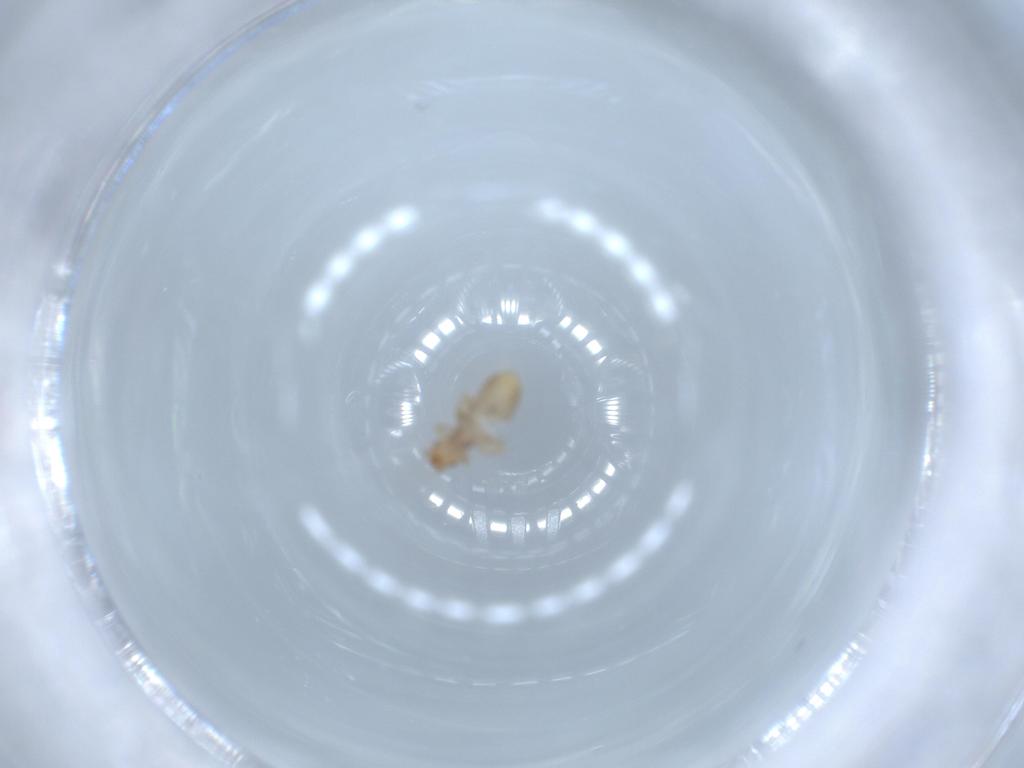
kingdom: Animalia
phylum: Arthropoda
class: Insecta
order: Psocodea
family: Liposcelididae
